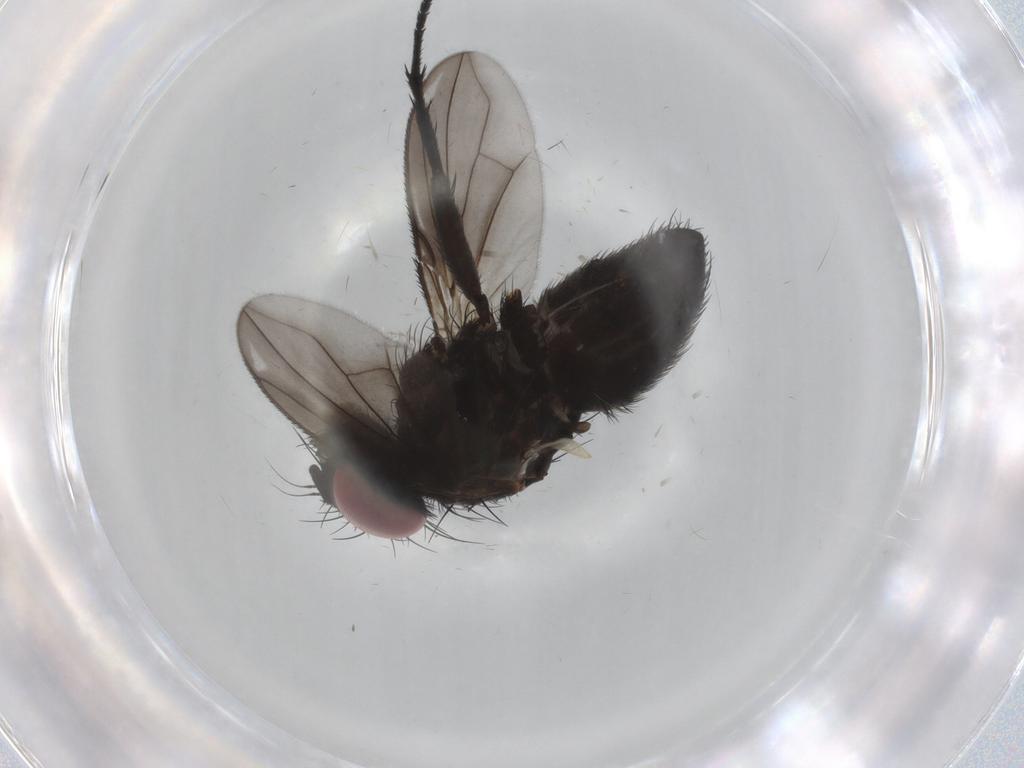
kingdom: Animalia
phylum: Arthropoda
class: Insecta
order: Diptera
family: Calliphoridae
